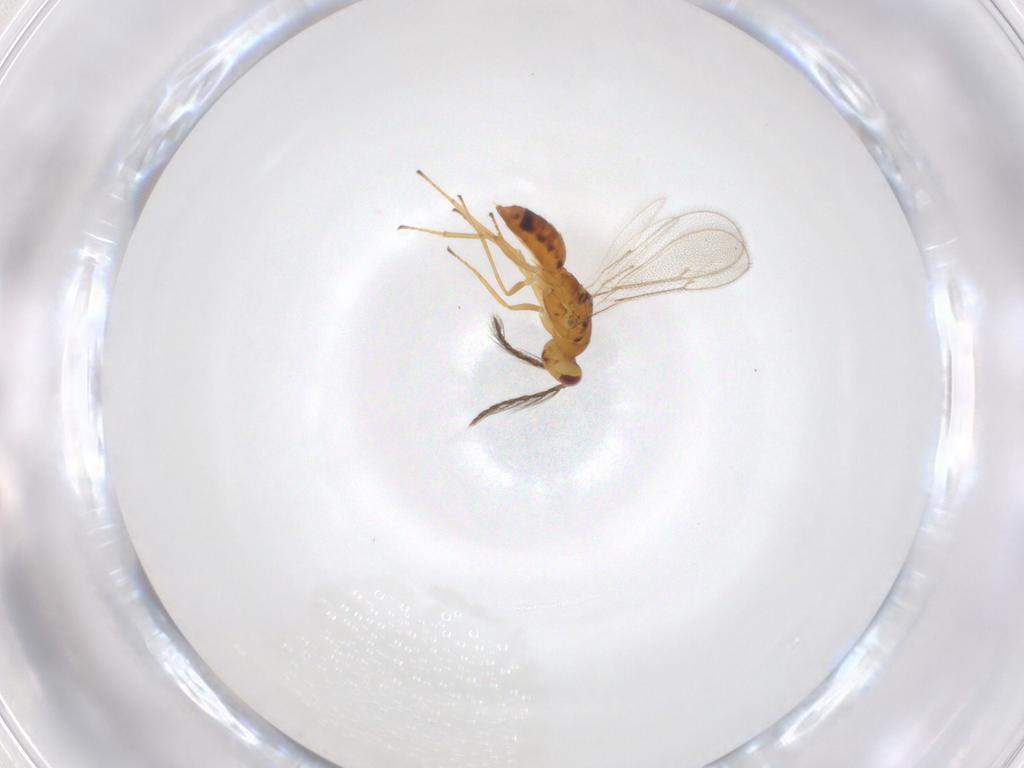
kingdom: Animalia
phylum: Arthropoda
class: Insecta
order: Hymenoptera
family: Eulophidae
